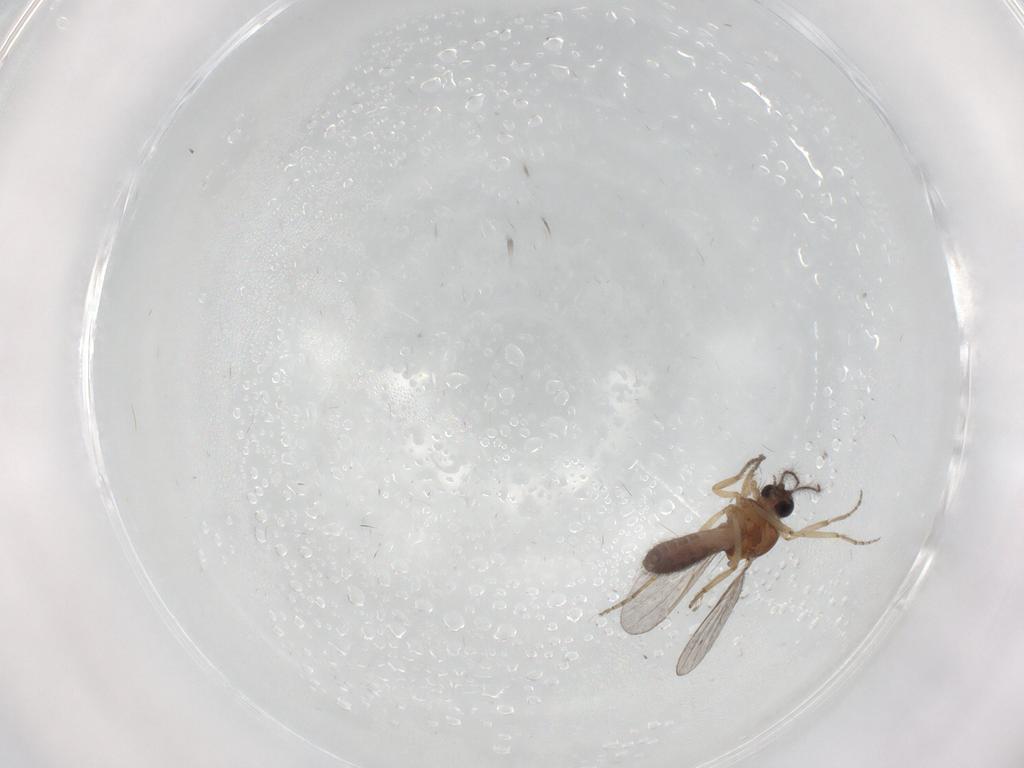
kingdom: Animalia
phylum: Arthropoda
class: Insecta
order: Diptera
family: Ceratopogonidae
